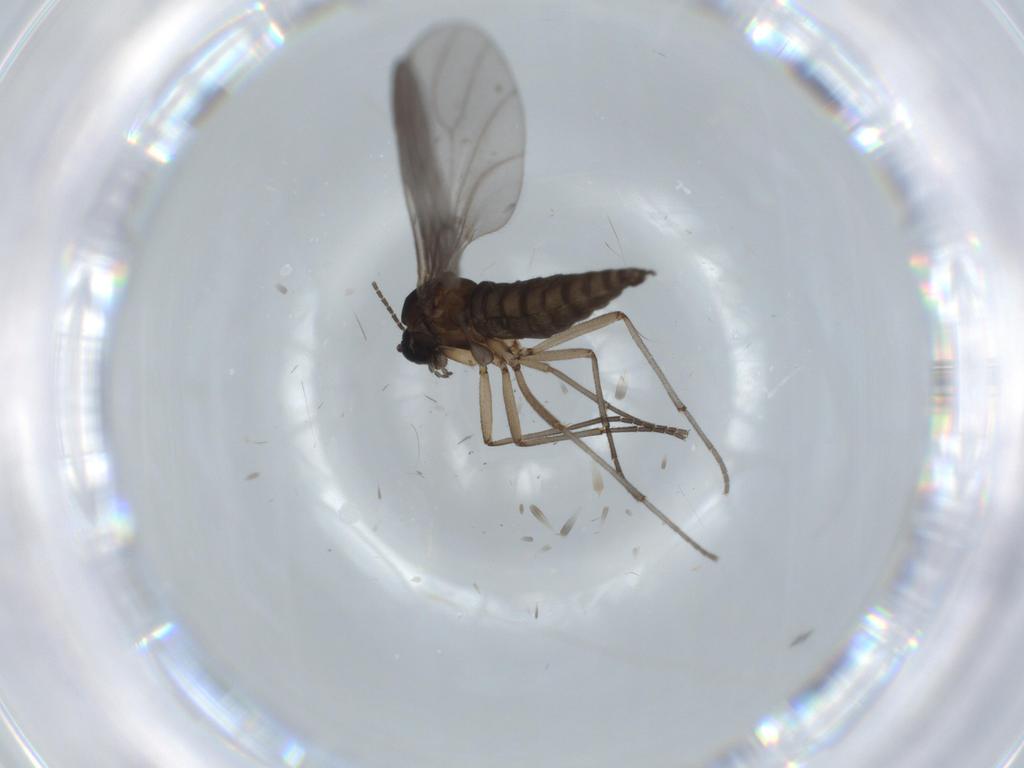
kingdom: Animalia
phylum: Arthropoda
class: Insecta
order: Diptera
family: Sciaridae
